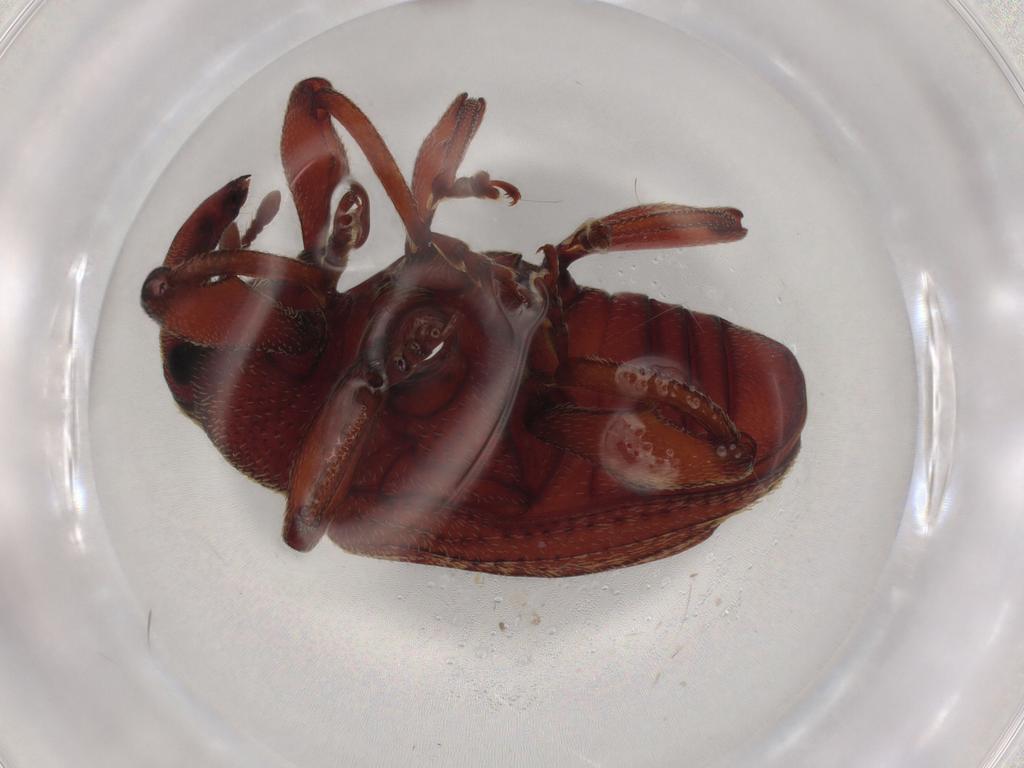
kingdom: Animalia
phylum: Arthropoda
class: Insecta
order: Coleoptera
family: Curculionidae
